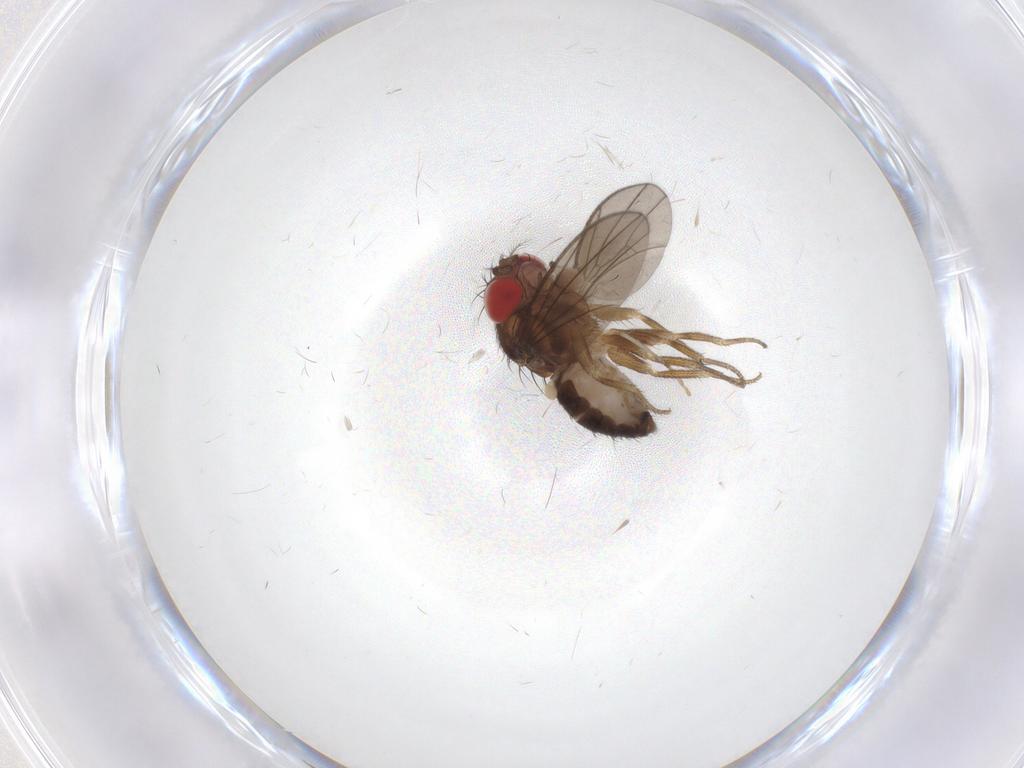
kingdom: Animalia
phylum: Arthropoda
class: Insecta
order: Diptera
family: Drosophilidae
